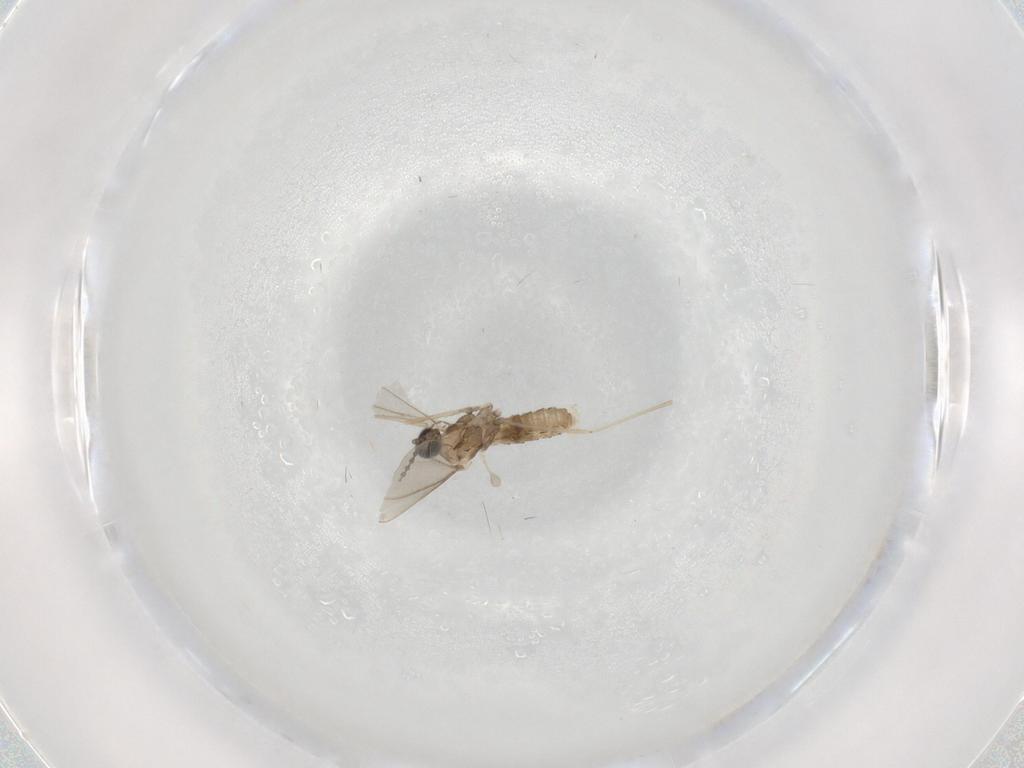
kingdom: Animalia
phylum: Arthropoda
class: Insecta
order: Diptera
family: Cecidomyiidae
